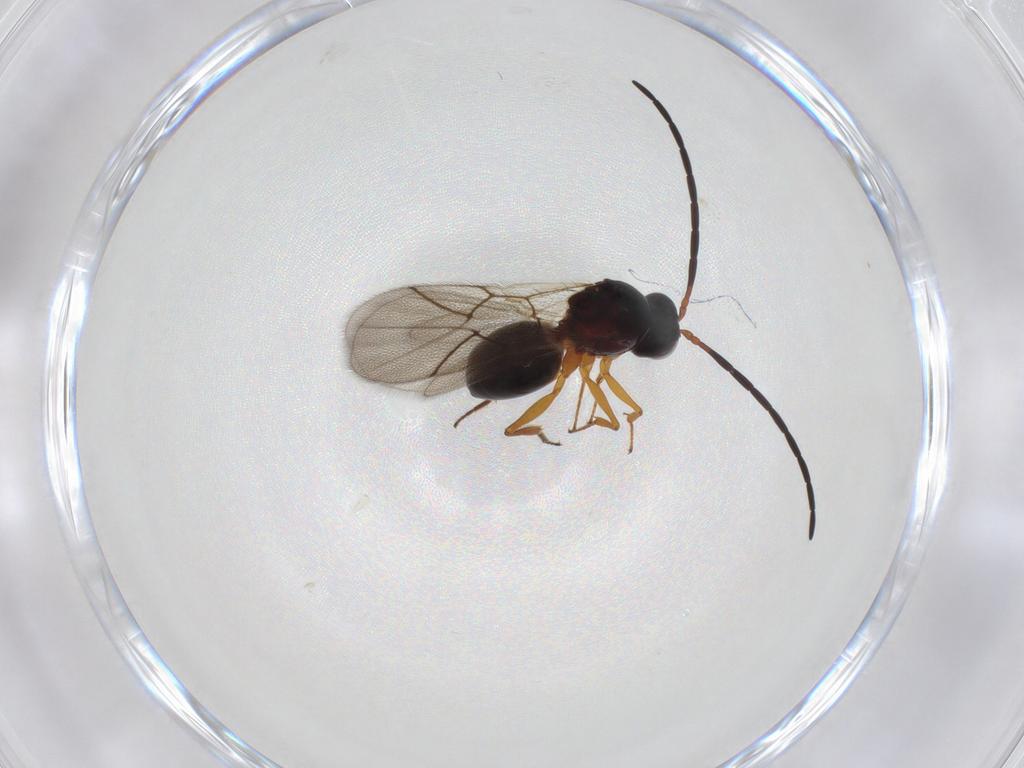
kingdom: Animalia
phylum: Arthropoda
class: Insecta
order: Hymenoptera
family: Figitidae
